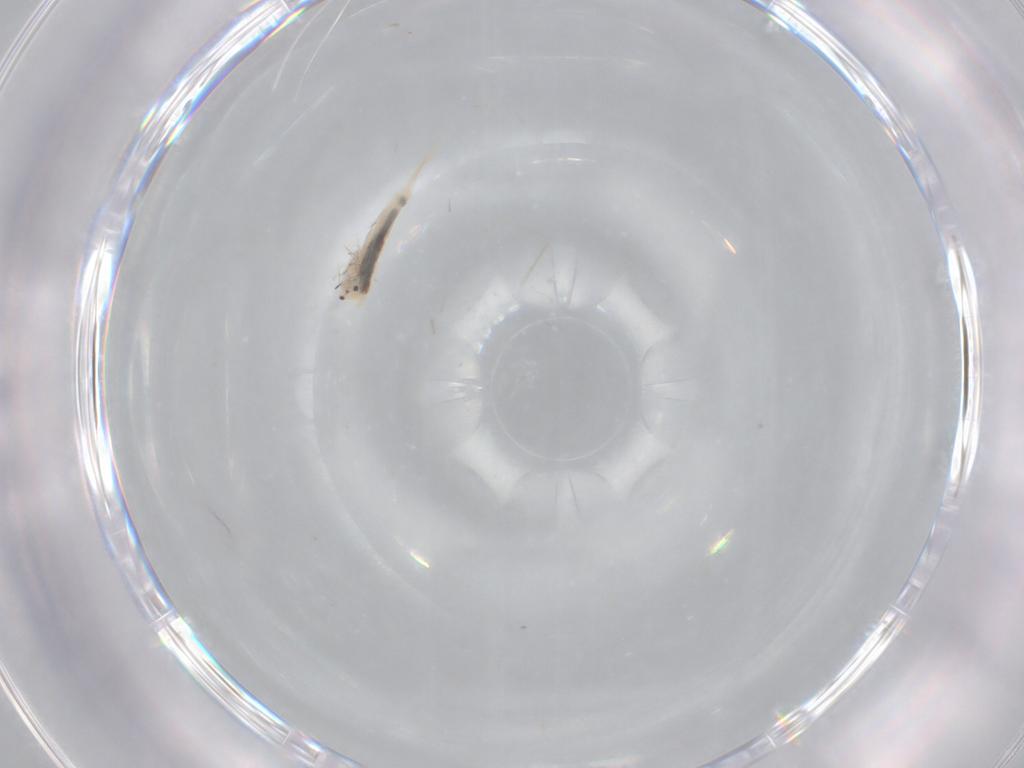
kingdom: Animalia
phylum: Arthropoda
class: Collembola
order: Entomobryomorpha
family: Entomobryidae
